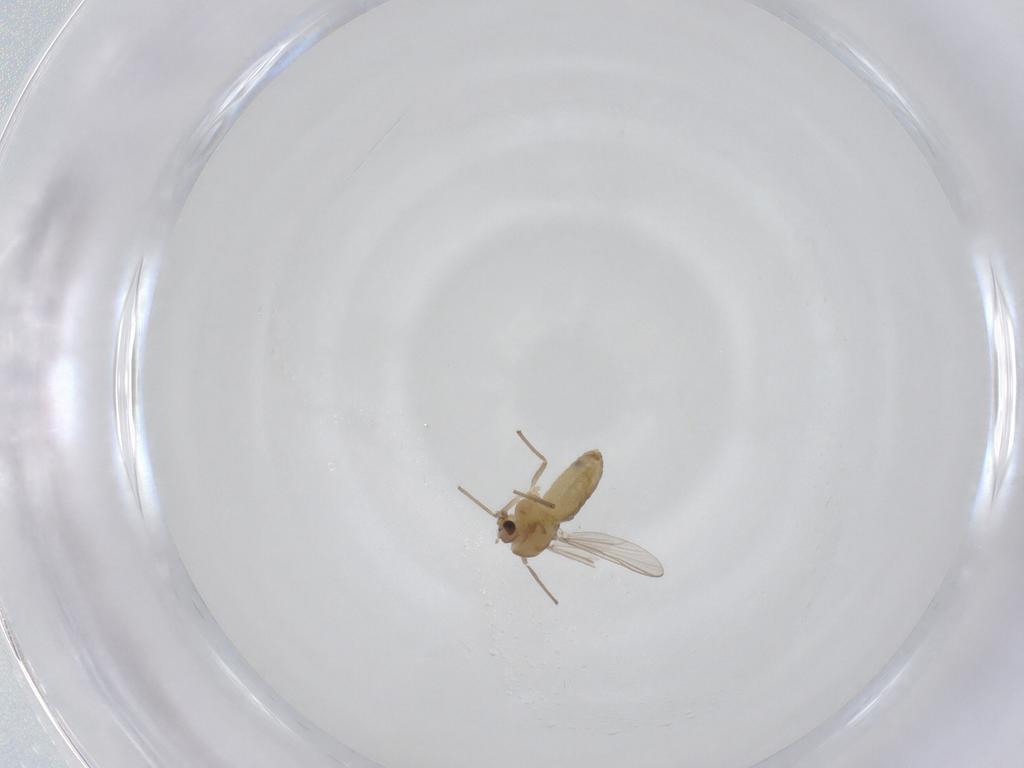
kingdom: Animalia
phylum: Arthropoda
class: Insecta
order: Diptera
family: Chironomidae
